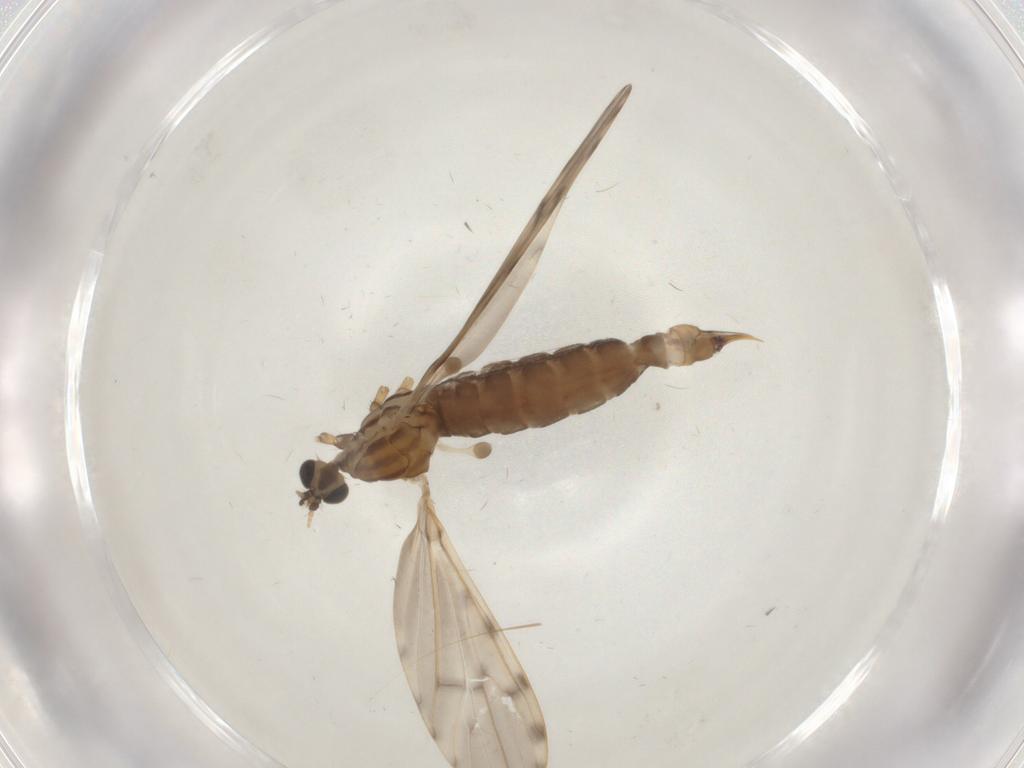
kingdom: Animalia
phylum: Arthropoda
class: Insecta
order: Diptera
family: Limoniidae
